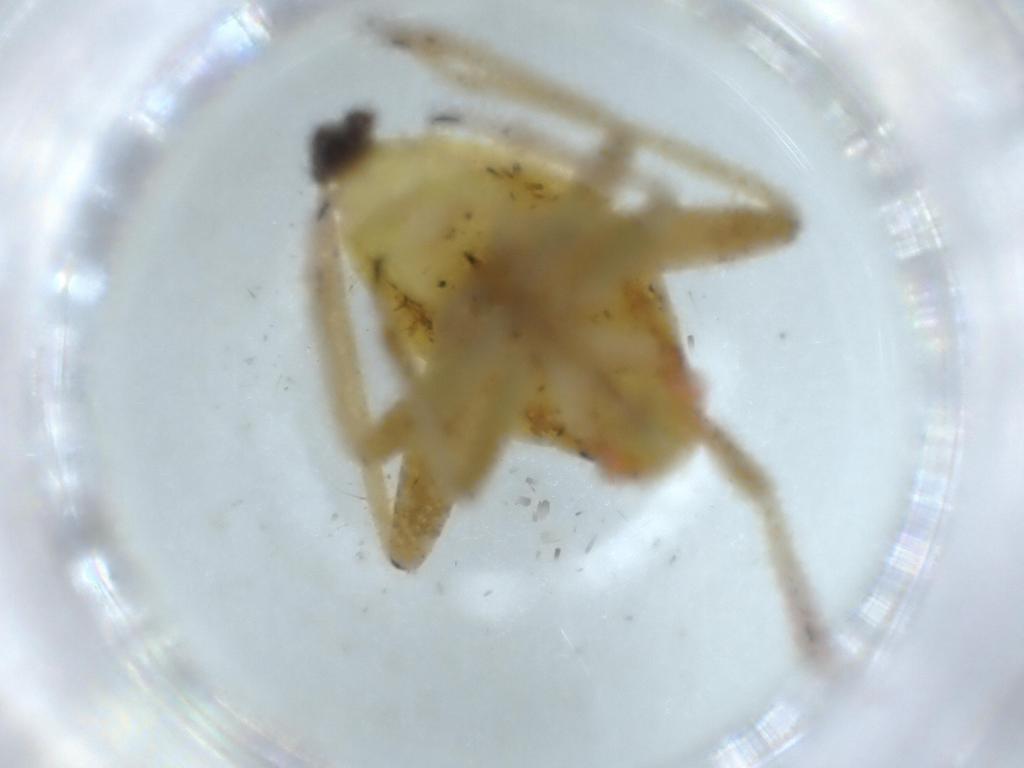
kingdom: Animalia
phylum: Arthropoda
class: Insecta
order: Hemiptera
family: Miridae
